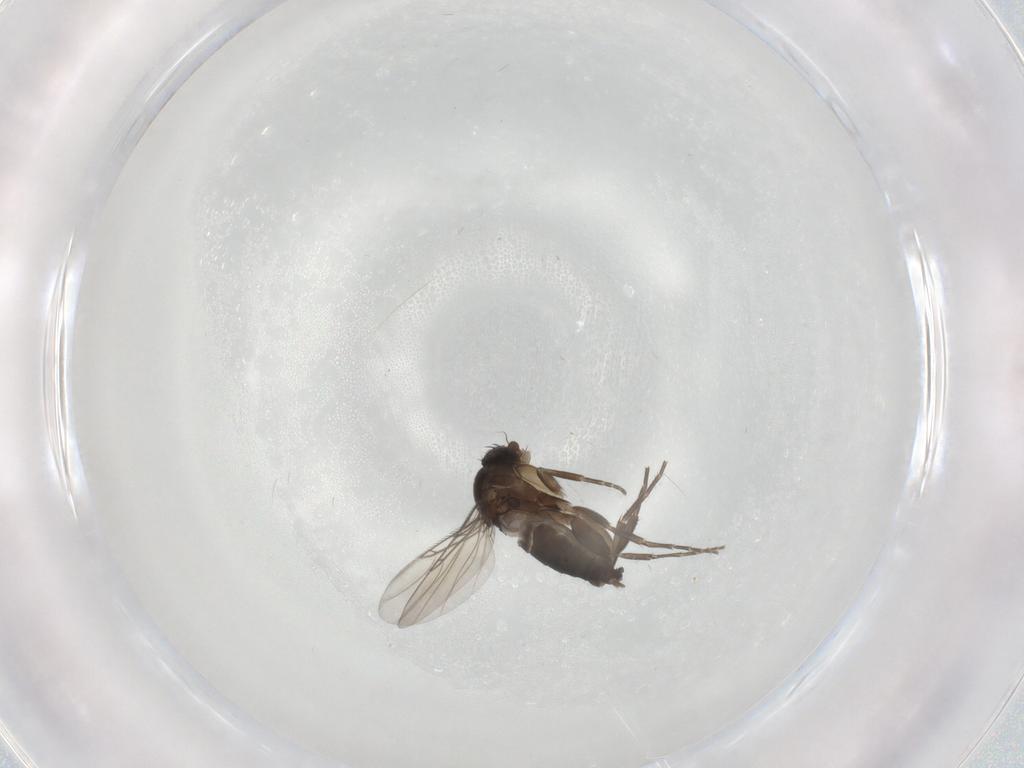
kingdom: Animalia
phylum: Arthropoda
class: Insecta
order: Diptera
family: Phoridae
